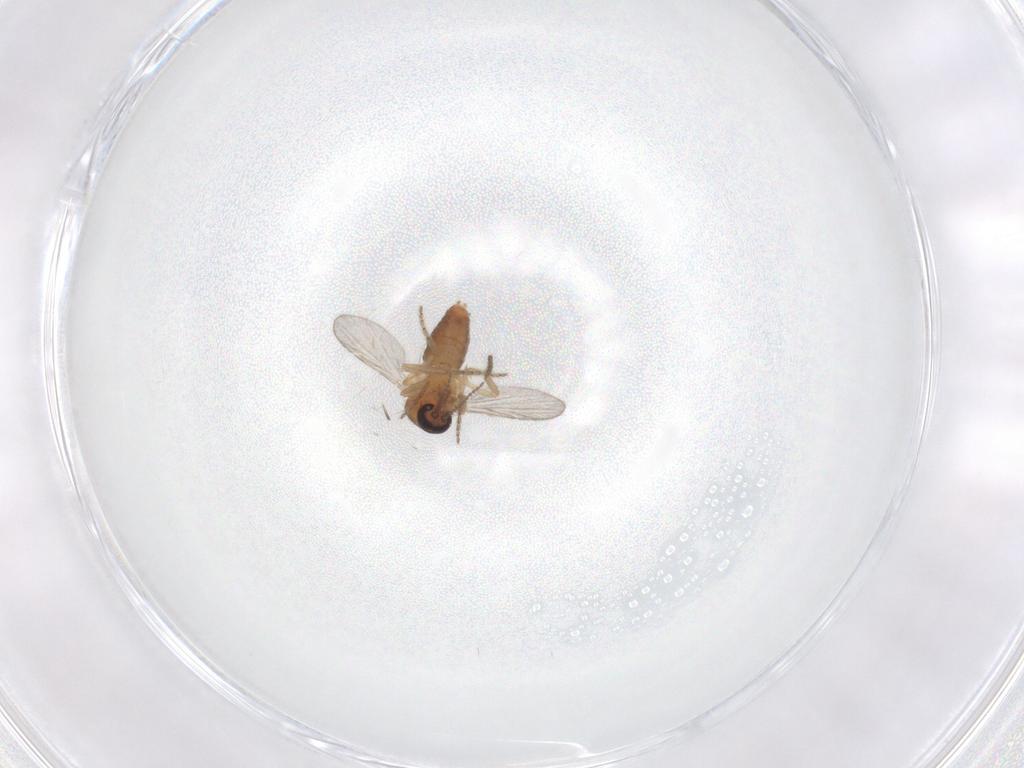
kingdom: Animalia
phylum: Arthropoda
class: Insecta
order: Diptera
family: Ceratopogonidae
